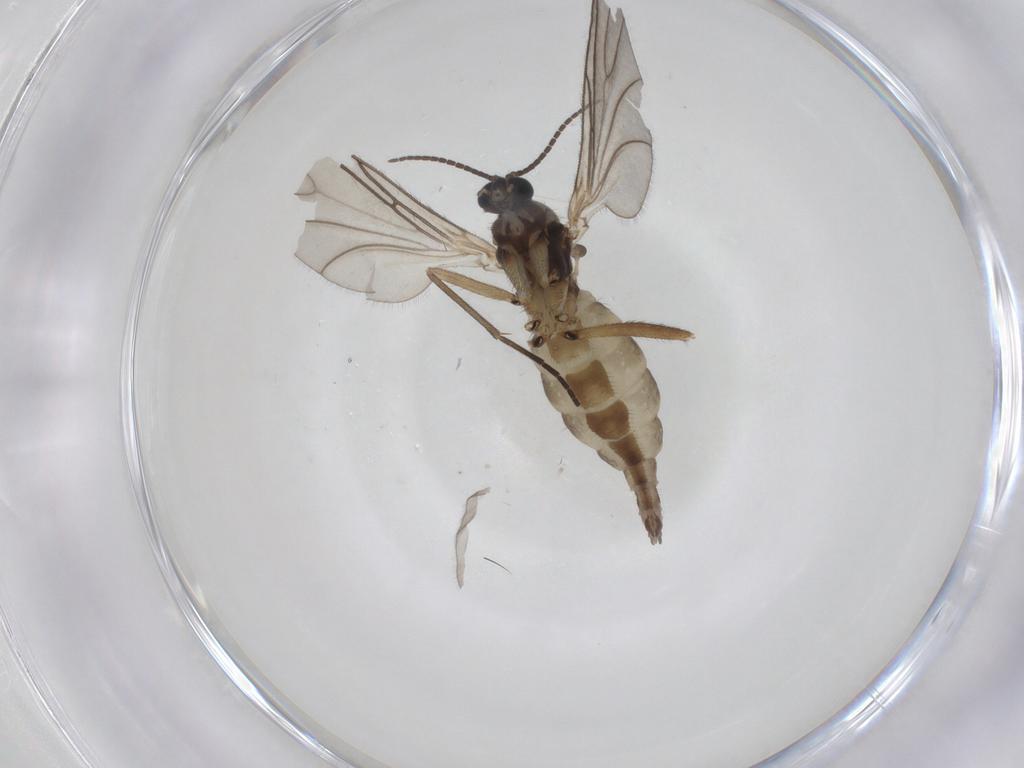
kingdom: Animalia
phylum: Arthropoda
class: Insecta
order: Diptera
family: Sciaridae
